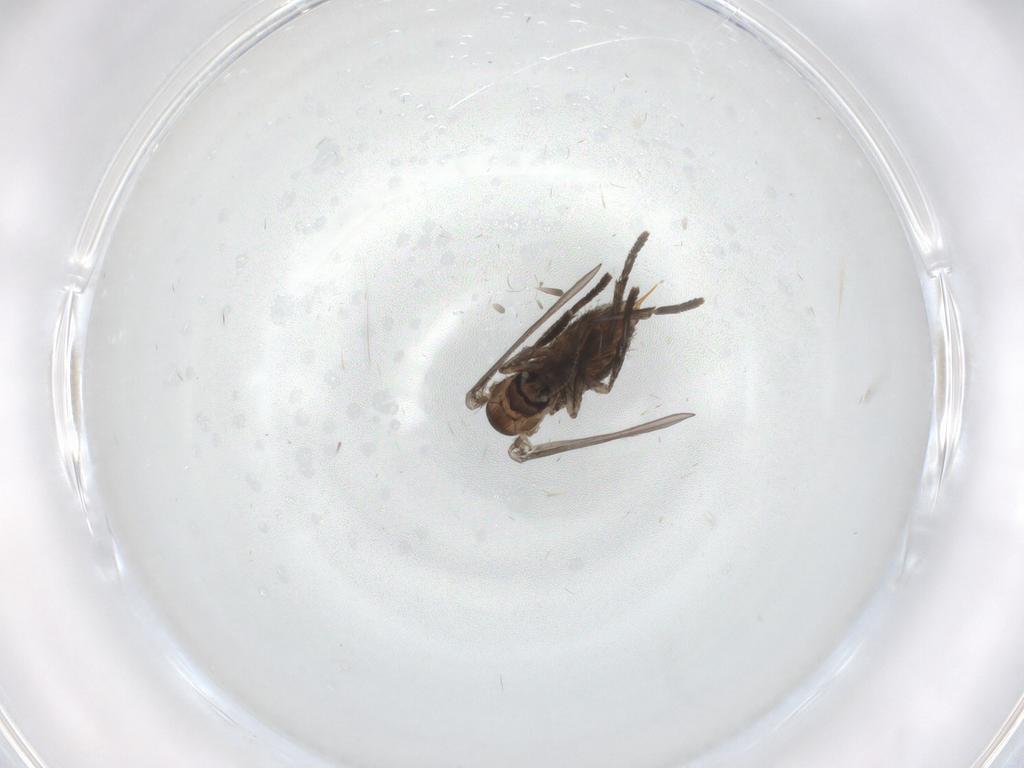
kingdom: Animalia
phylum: Arthropoda
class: Insecta
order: Diptera
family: Psychodidae
